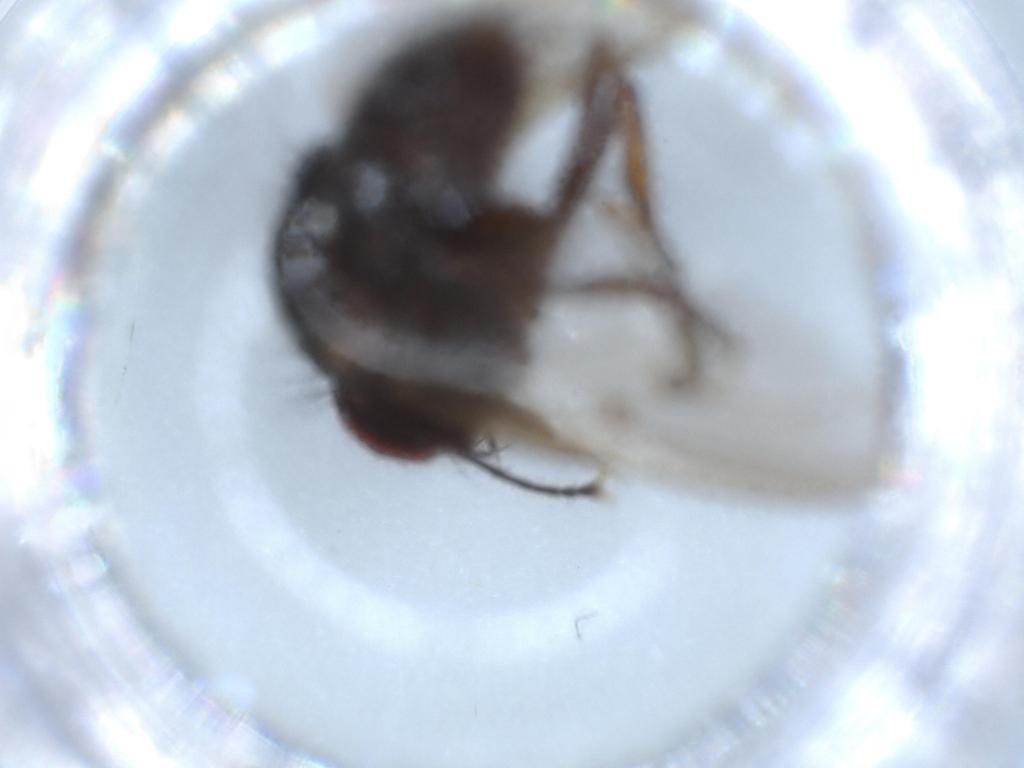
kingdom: Animalia
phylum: Arthropoda
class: Insecta
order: Diptera
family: Muscidae
